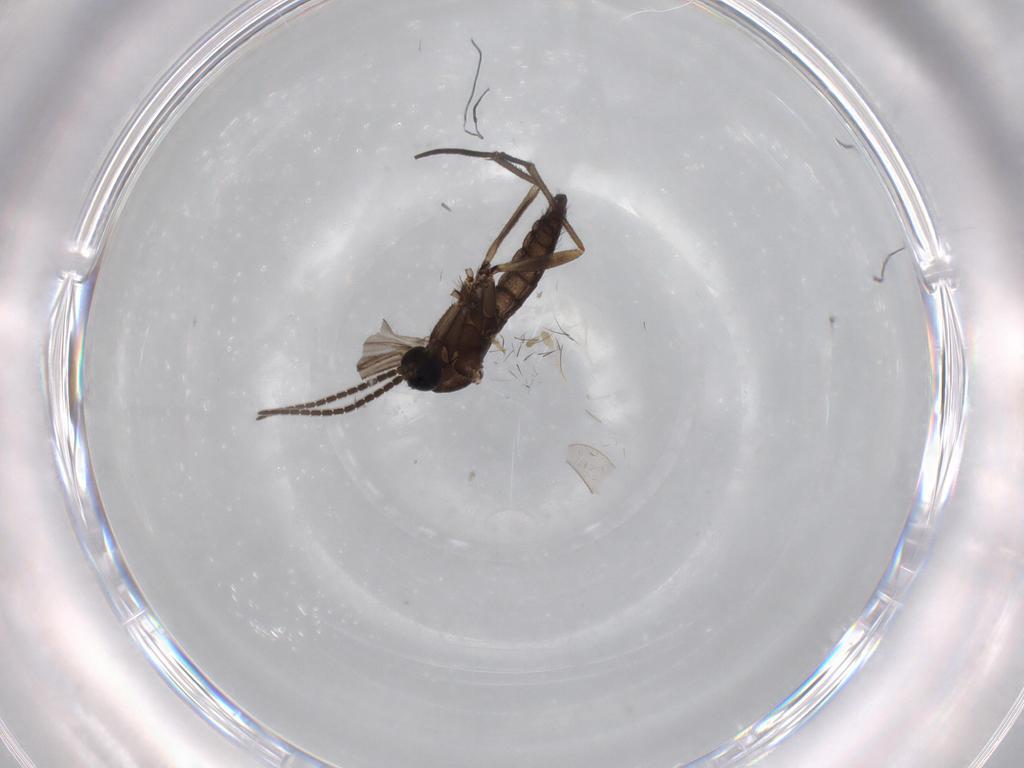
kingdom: Animalia
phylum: Arthropoda
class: Insecta
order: Diptera
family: Sciaridae
